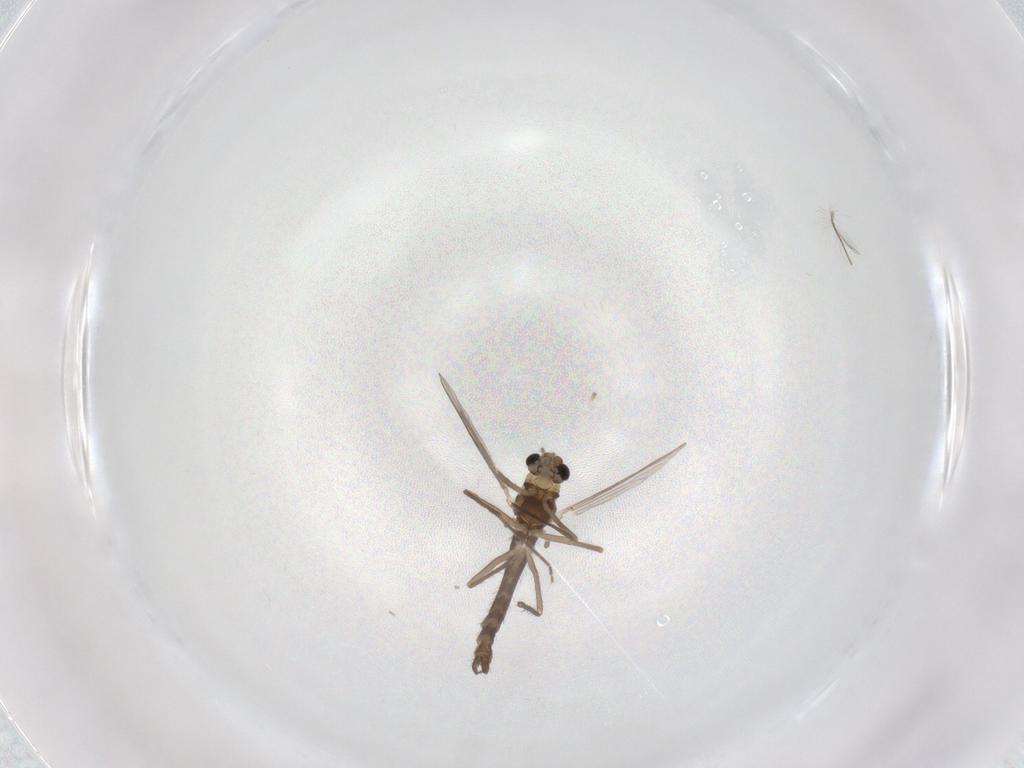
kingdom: Animalia
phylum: Arthropoda
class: Insecta
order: Diptera
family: Chironomidae
